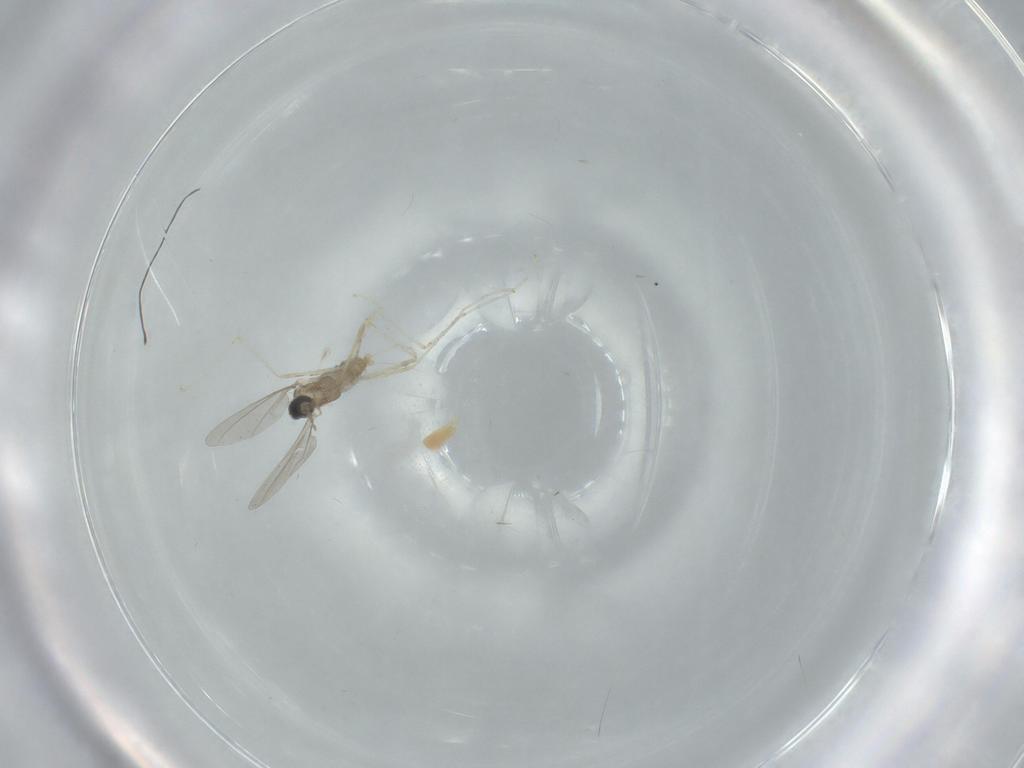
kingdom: Animalia
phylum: Arthropoda
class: Insecta
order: Diptera
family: Cecidomyiidae
